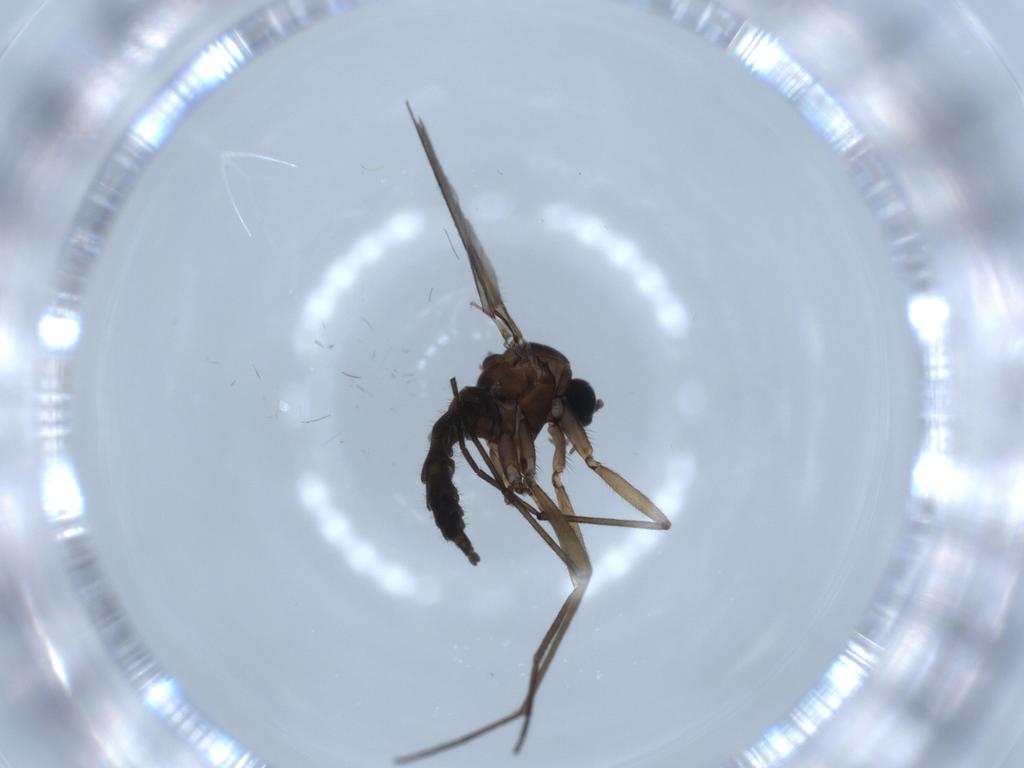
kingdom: Animalia
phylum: Arthropoda
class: Insecta
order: Diptera
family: Sciaridae
